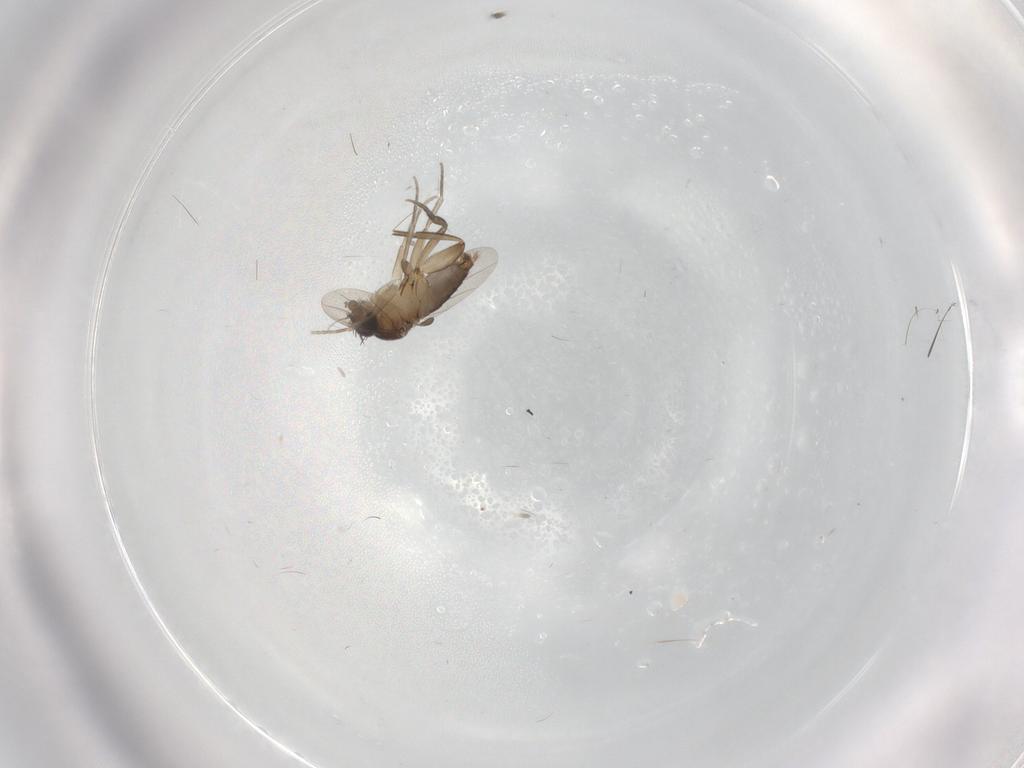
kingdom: Animalia
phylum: Arthropoda
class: Insecta
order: Diptera
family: Phoridae
